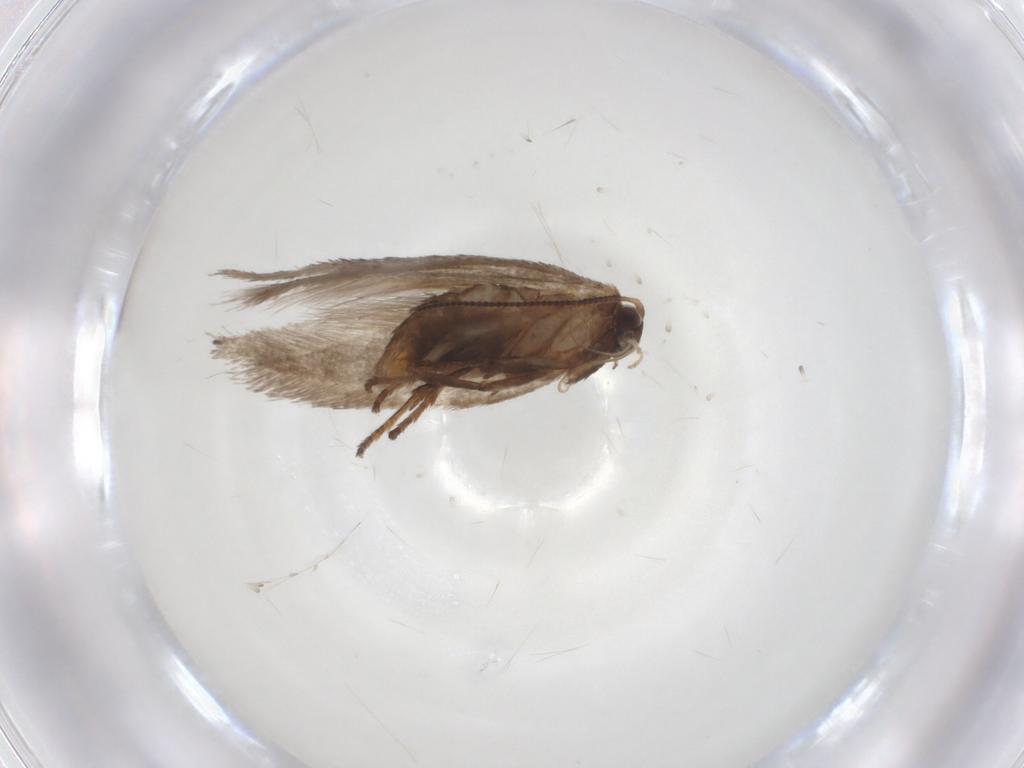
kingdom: Animalia
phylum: Arthropoda
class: Insecta
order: Lepidoptera
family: Nepticulidae
